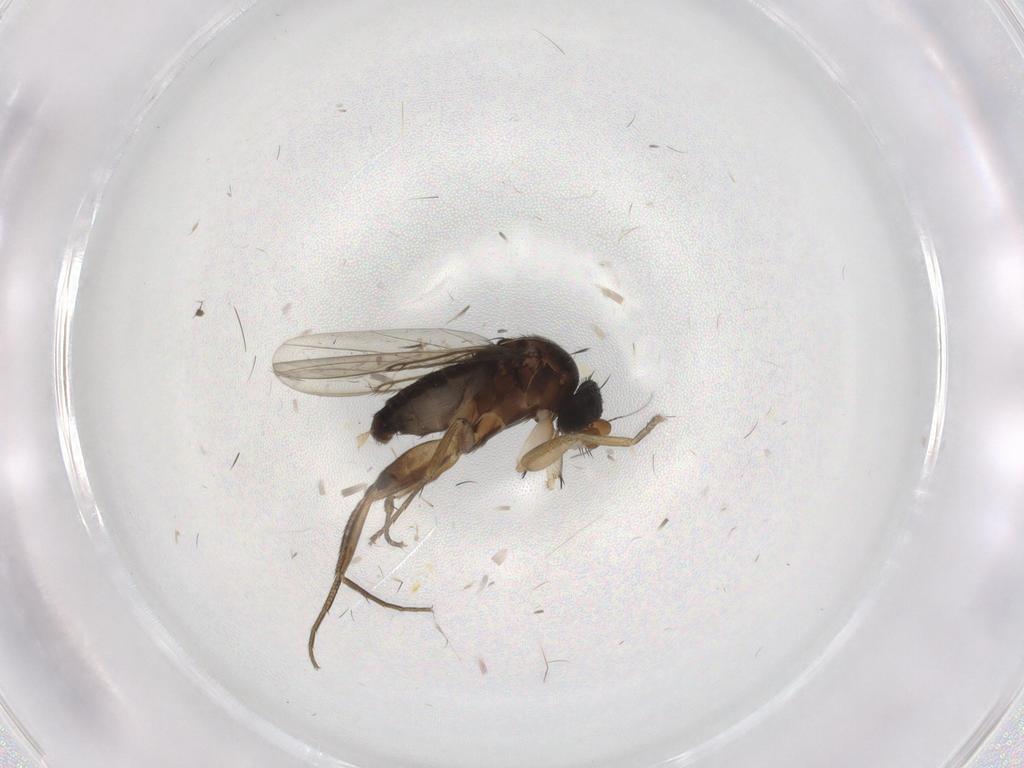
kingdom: Animalia
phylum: Arthropoda
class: Insecta
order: Diptera
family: Phoridae
